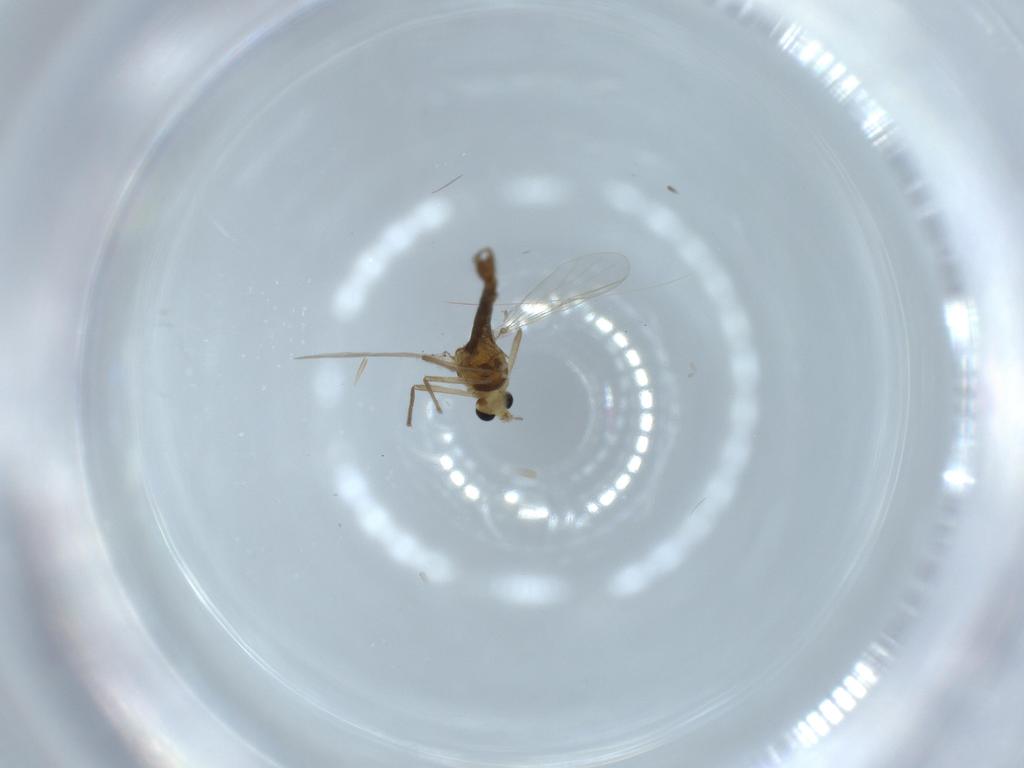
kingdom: Animalia
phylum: Arthropoda
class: Insecta
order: Diptera
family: Chironomidae
